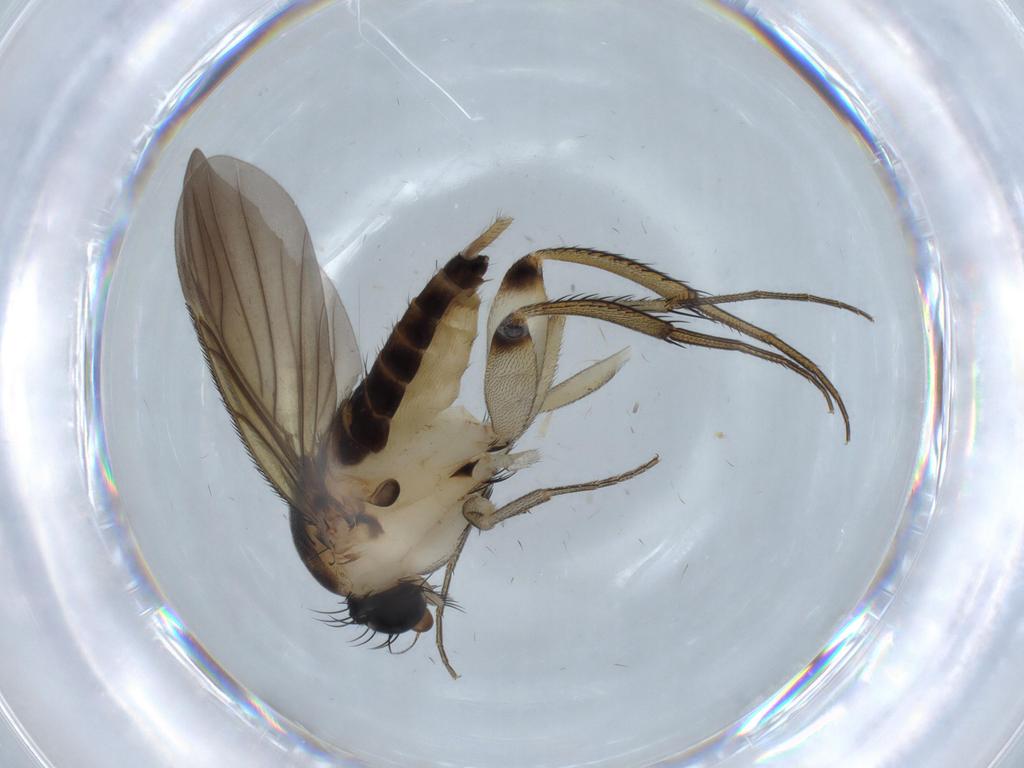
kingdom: Animalia
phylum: Arthropoda
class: Insecta
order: Diptera
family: Phoridae
